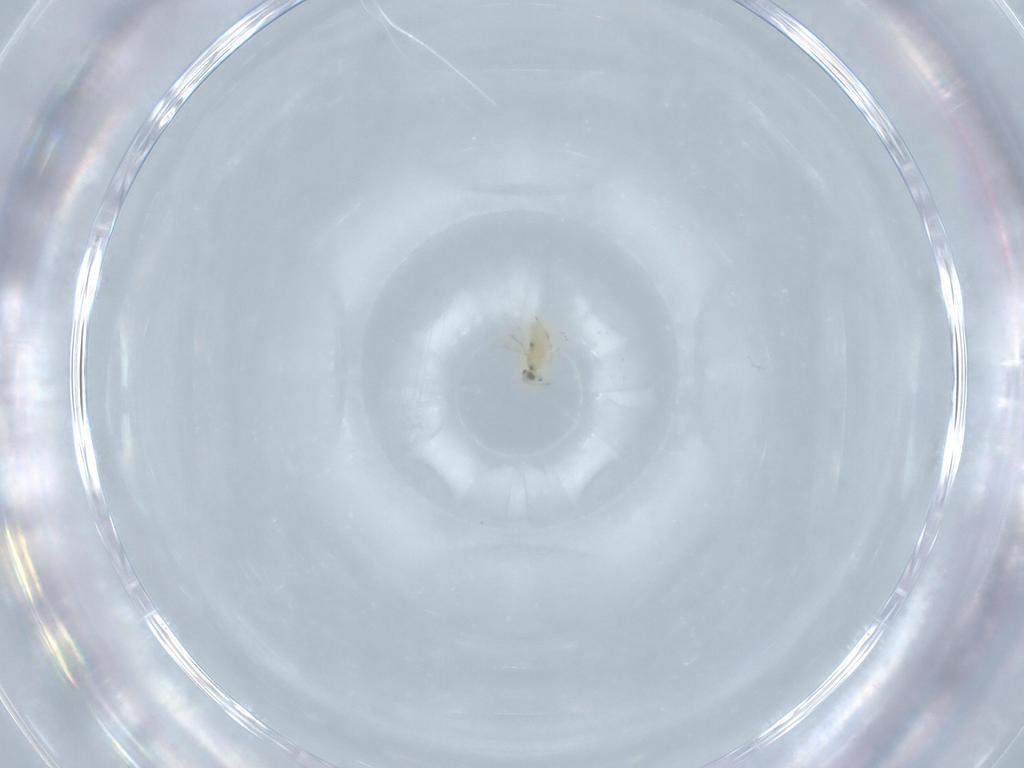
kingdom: Animalia
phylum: Arthropoda
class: Insecta
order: Hymenoptera
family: Scelionidae
